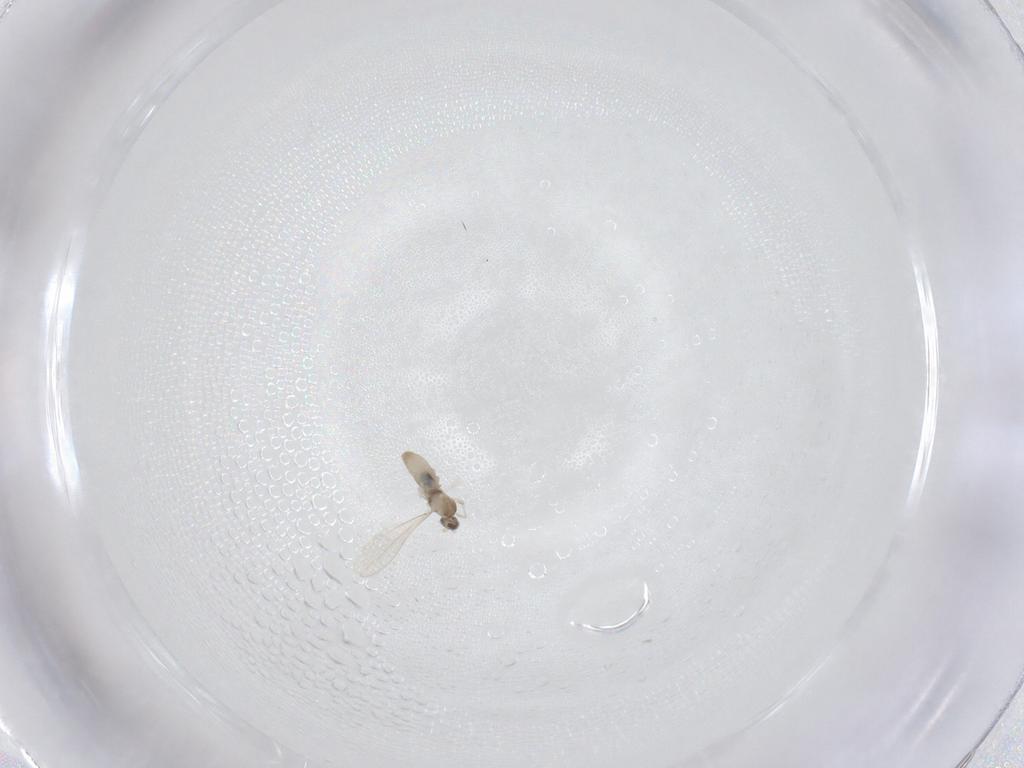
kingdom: Animalia
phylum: Arthropoda
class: Insecta
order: Diptera
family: Cecidomyiidae
